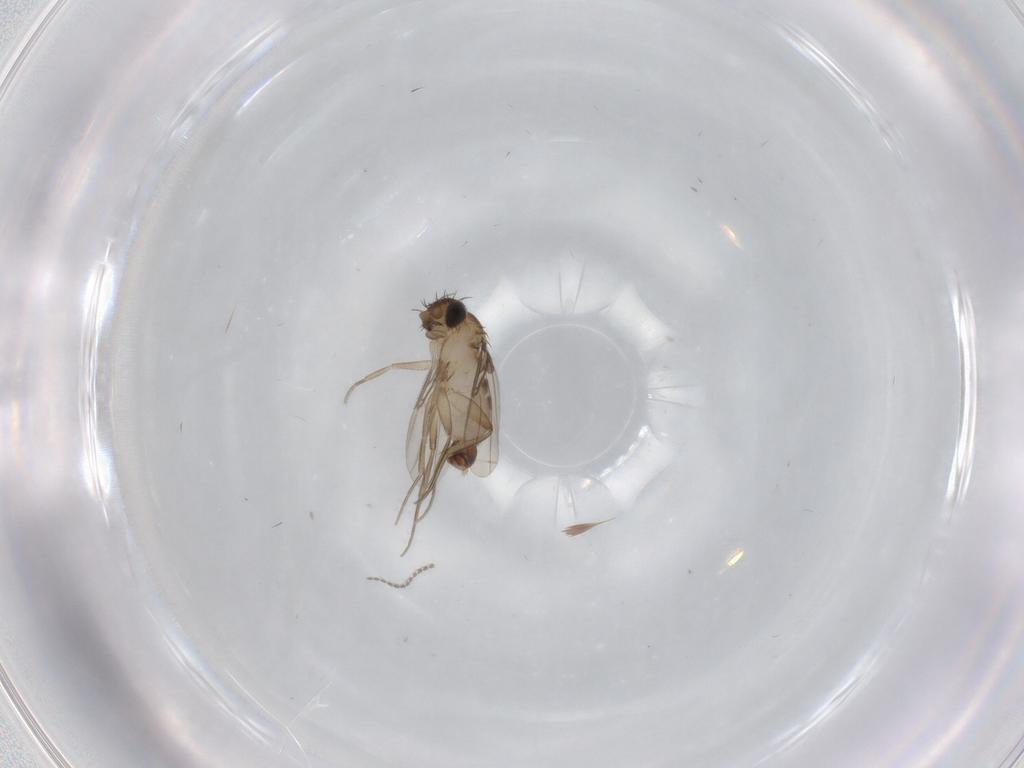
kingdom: Animalia
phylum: Arthropoda
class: Insecta
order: Diptera
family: Phoridae
